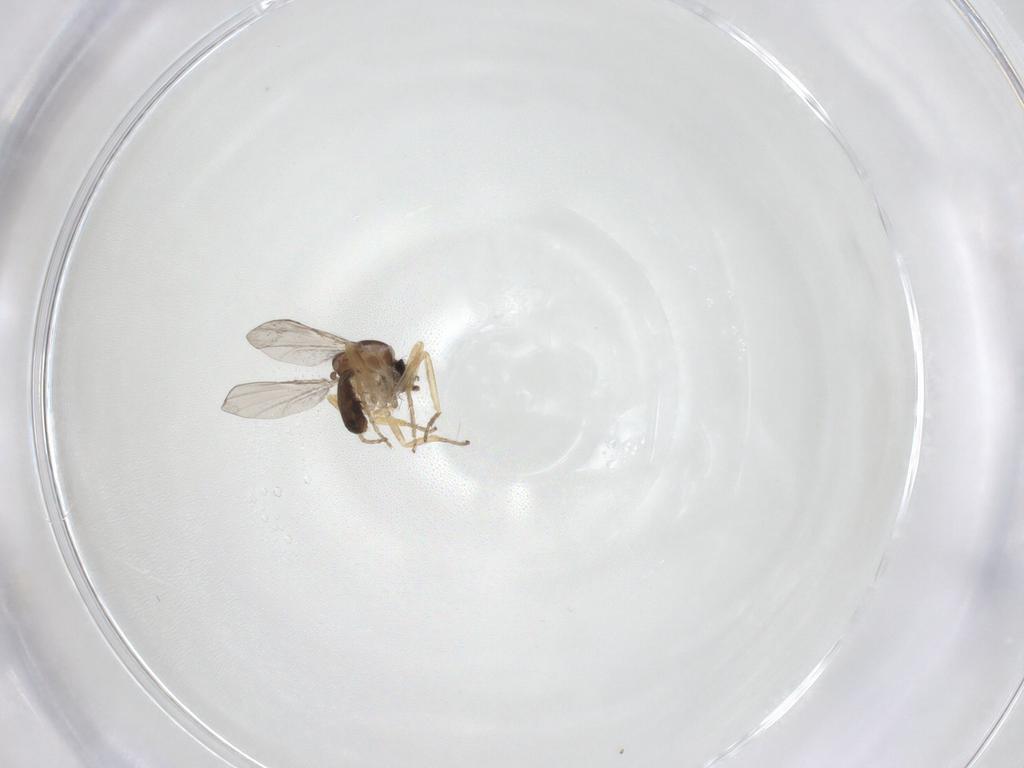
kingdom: Animalia
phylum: Arthropoda
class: Insecta
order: Diptera
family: Ceratopogonidae
